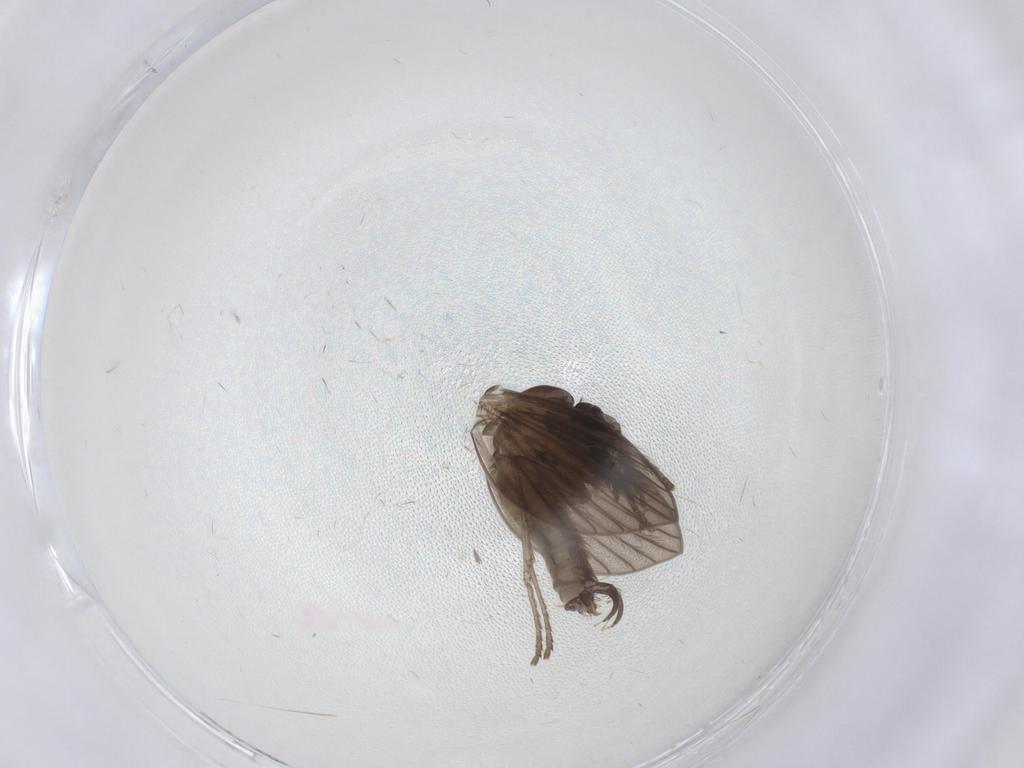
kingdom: Animalia
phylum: Arthropoda
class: Insecta
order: Diptera
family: Psychodidae
